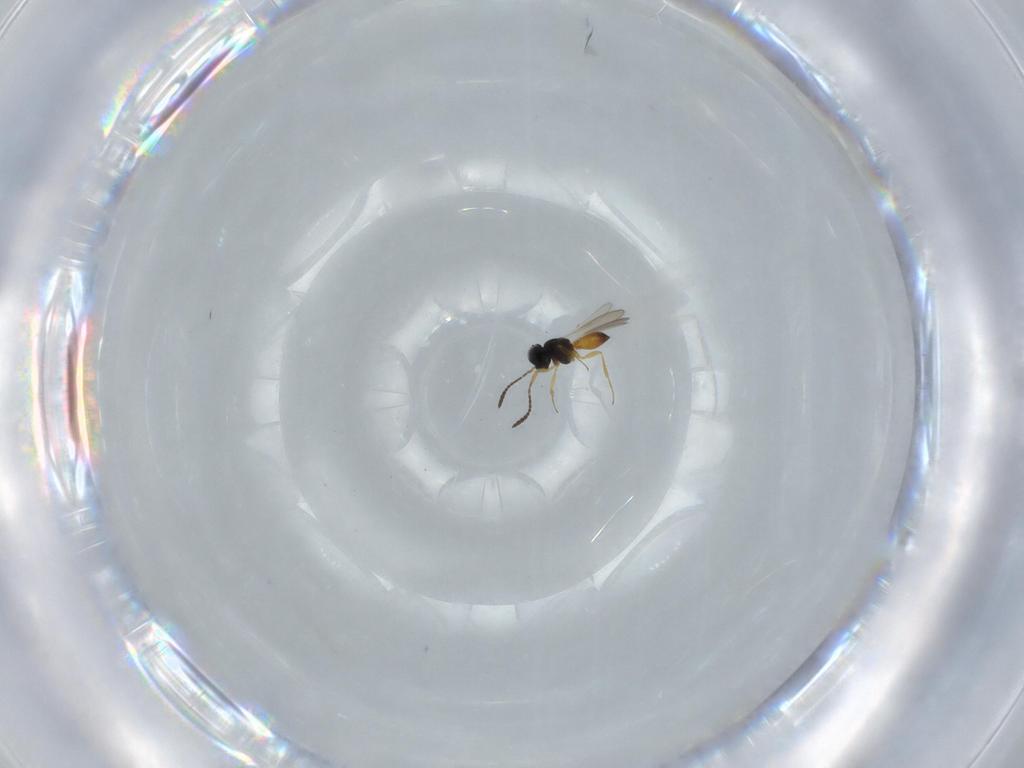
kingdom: Animalia
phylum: Arthropoda
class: Insecta
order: Hymenoptera
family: Scelionidae
